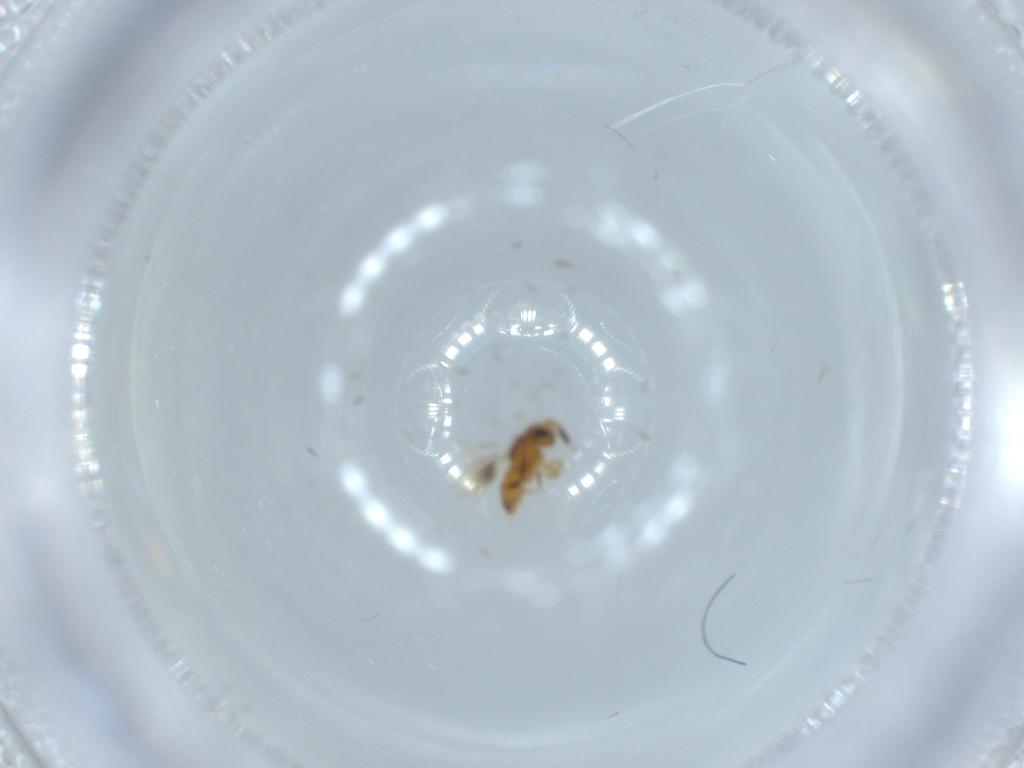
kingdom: Animalia
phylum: Arthropoda
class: Insecta
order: Hymenoptera
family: Scelionidae
